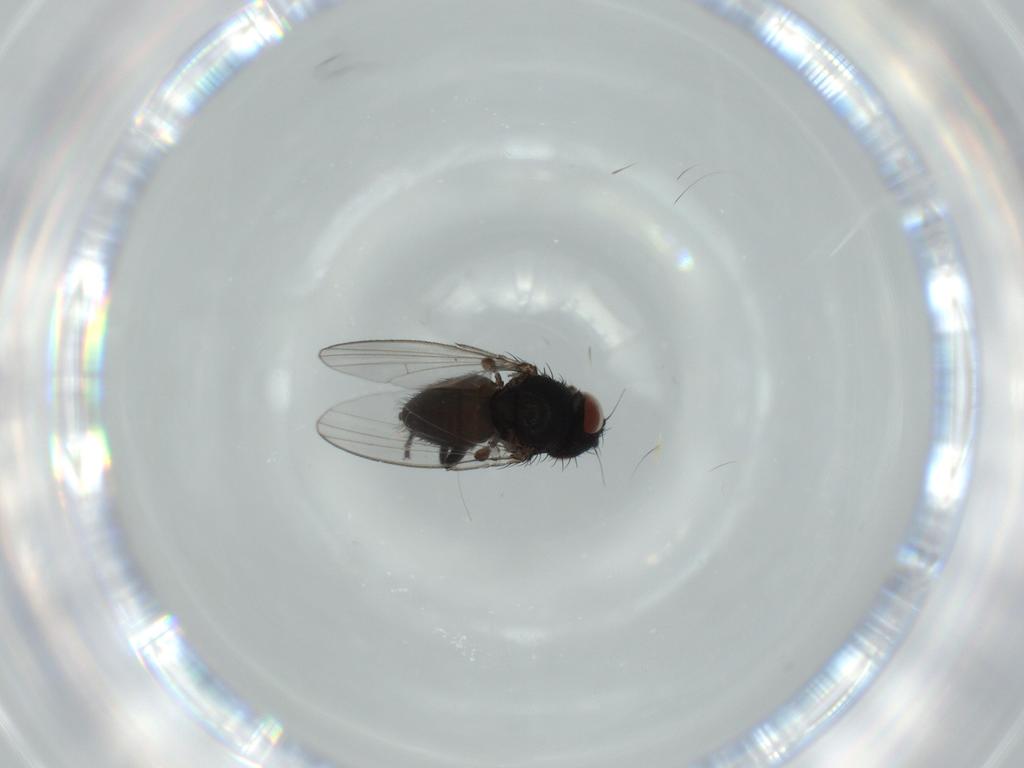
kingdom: Animalia
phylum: Arthropoda
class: Insecta
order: Diptera
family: Milichiidae
